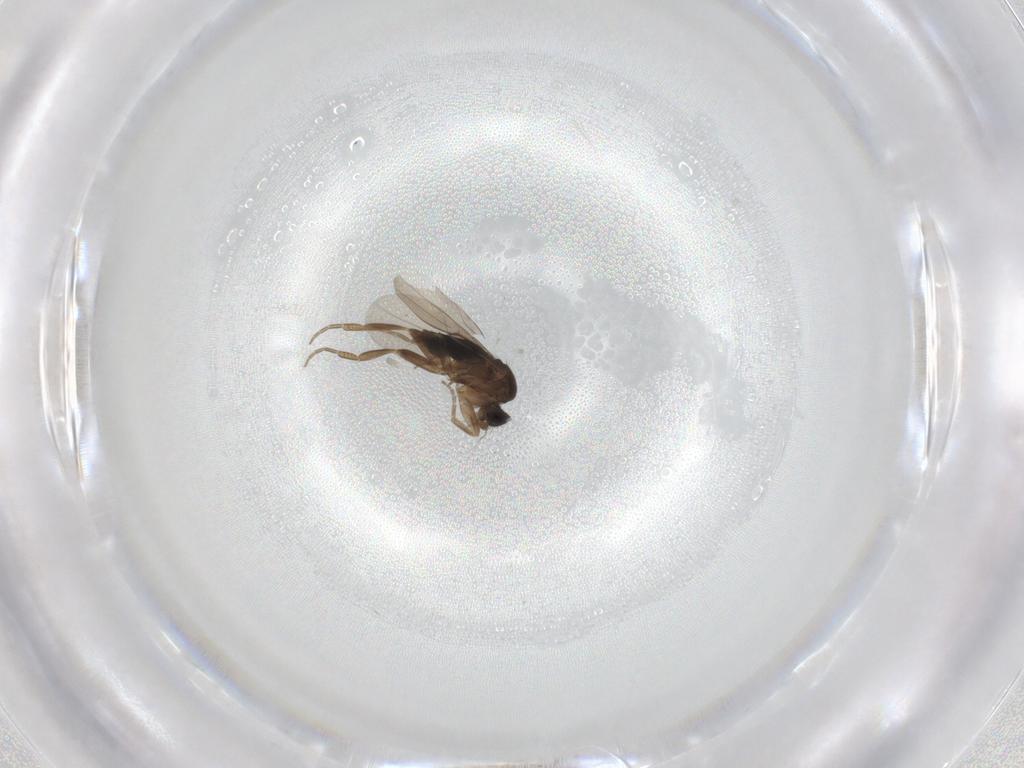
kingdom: Animalia
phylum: Arthropoda
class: Insecta
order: Diptera
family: Phoridae
